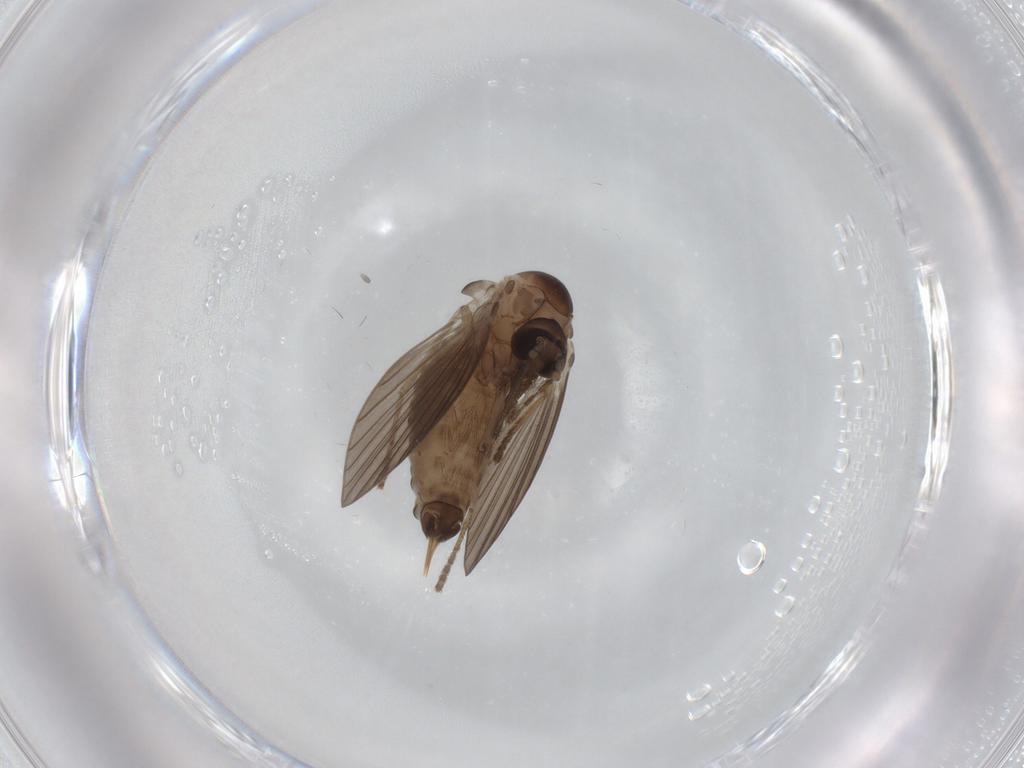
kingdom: Animalia
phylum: Arthropoda
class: Insecta
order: Diptera
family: Psychodidae
